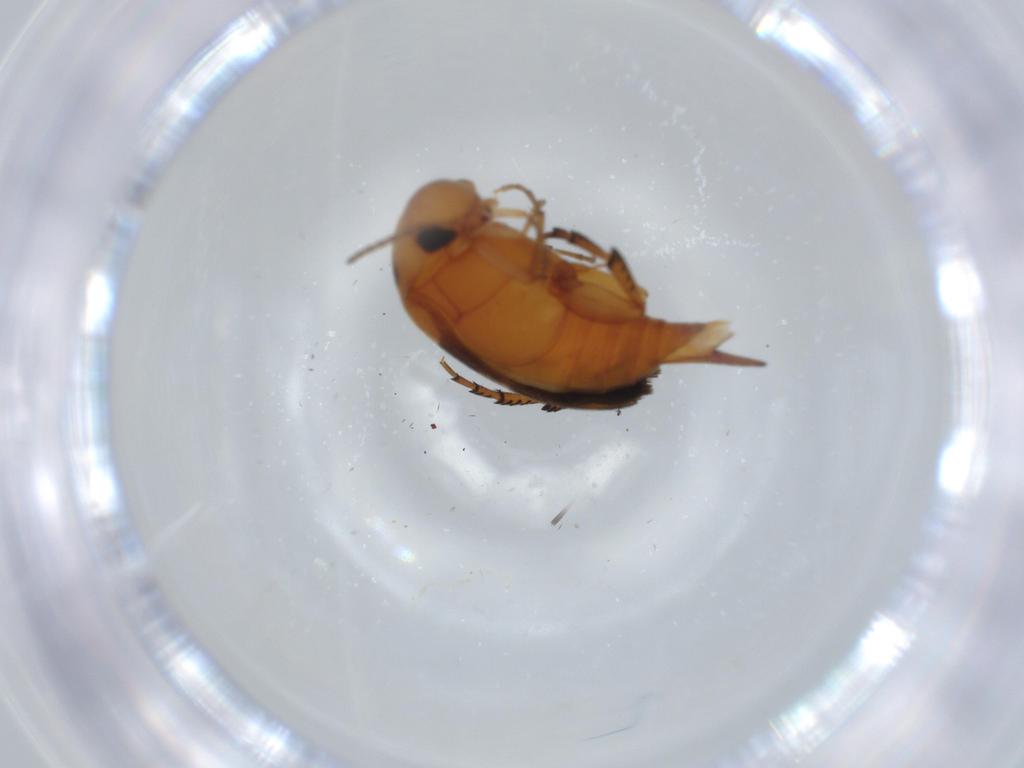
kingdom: Animalia
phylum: Arthropoda
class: Insecta
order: Coleoptera
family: Mordellidae
